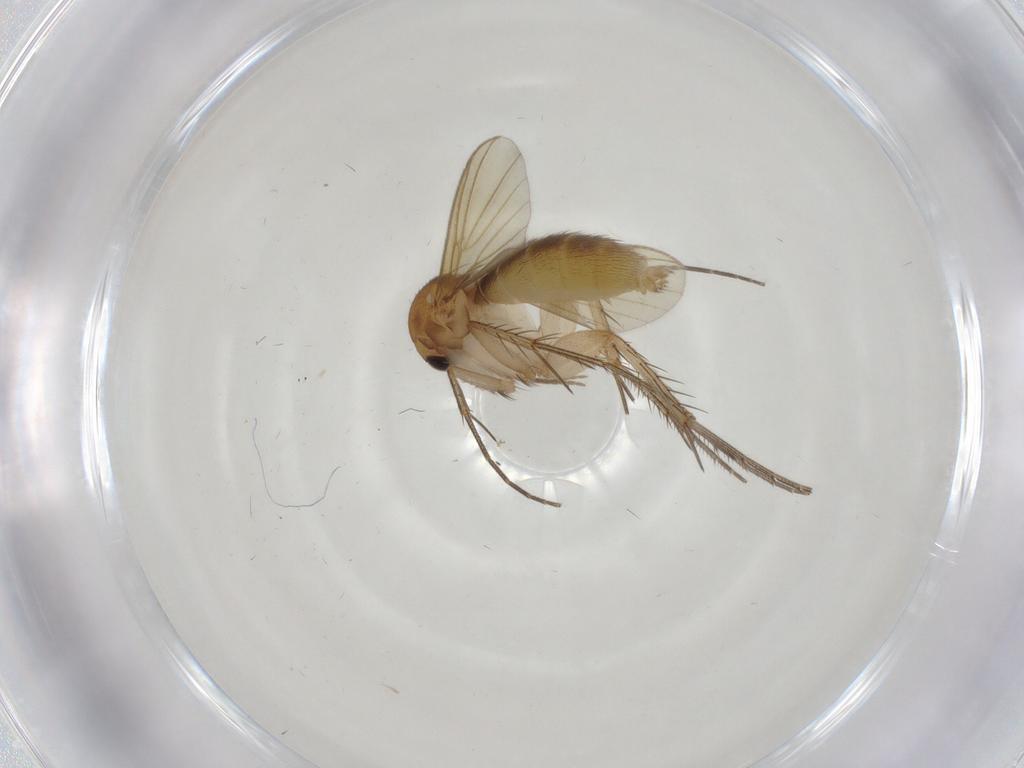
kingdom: Animalia
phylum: Arthropoda
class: Insecta
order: Diptera
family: Mycetophilidae
